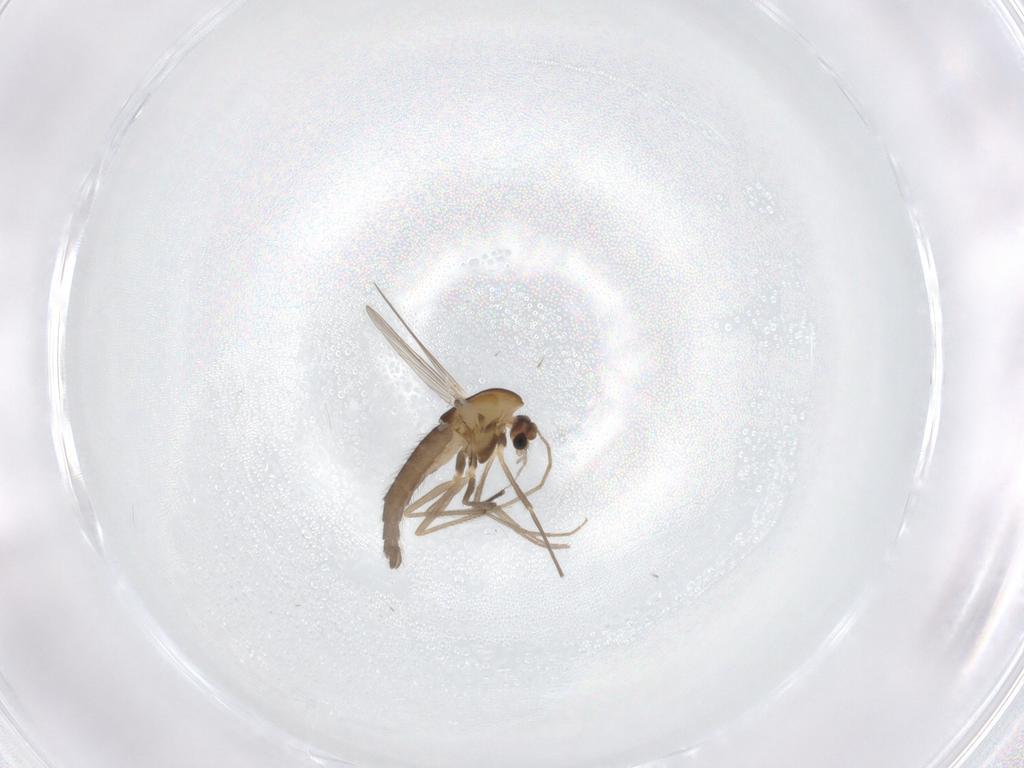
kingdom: Animalia
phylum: Arthropoda
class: Insecta
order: Diptera
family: Chironomidae
